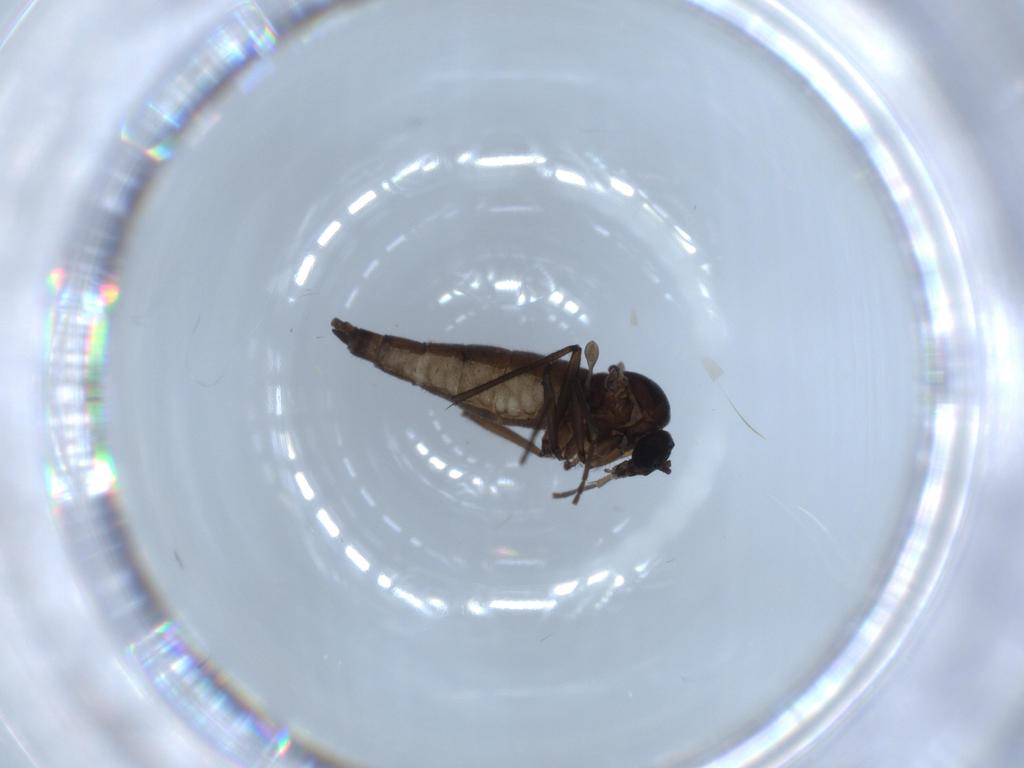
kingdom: Animalia
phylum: Arthropoda
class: Insecta
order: Diptera
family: Sciaridae
